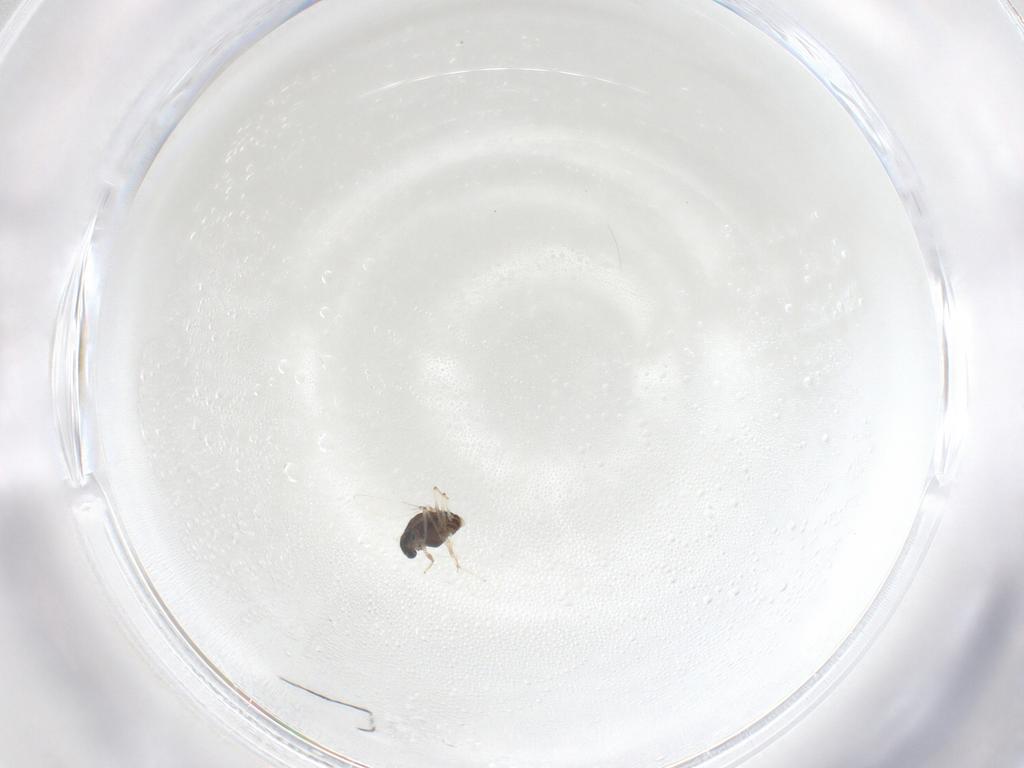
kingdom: Animalia
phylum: Arthropoda
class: Insecta
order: Diptera
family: Chironomidae
